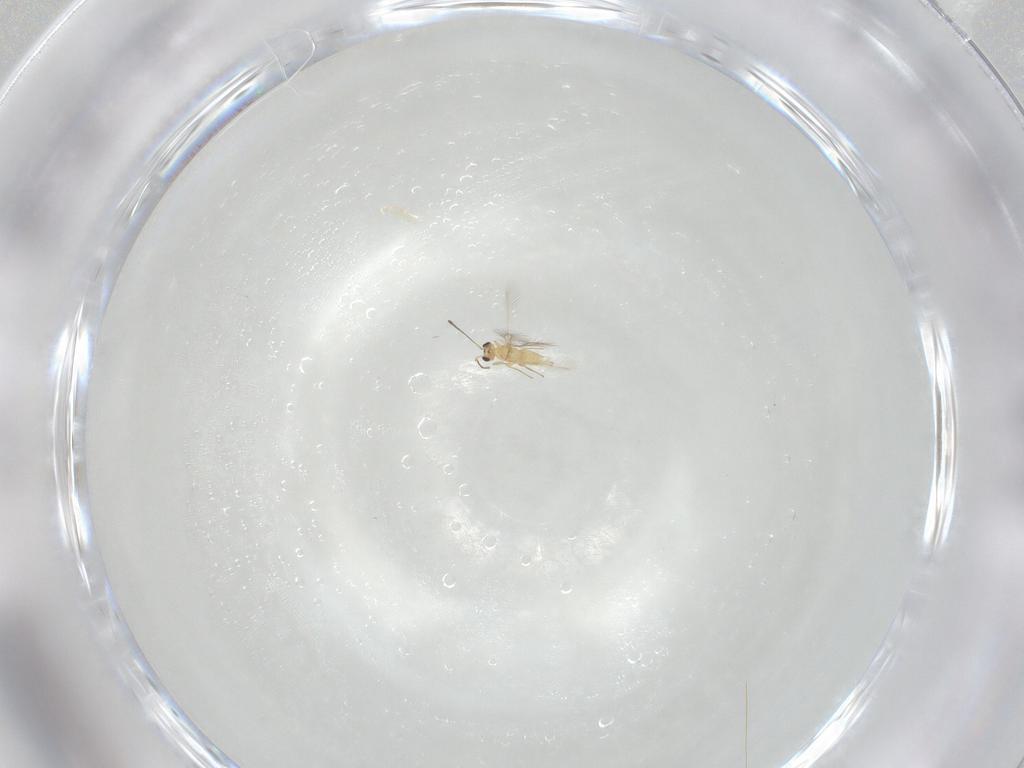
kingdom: Animalia
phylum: Arthropoda
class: Insecta
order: Hymenoptera
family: Mymaridae
